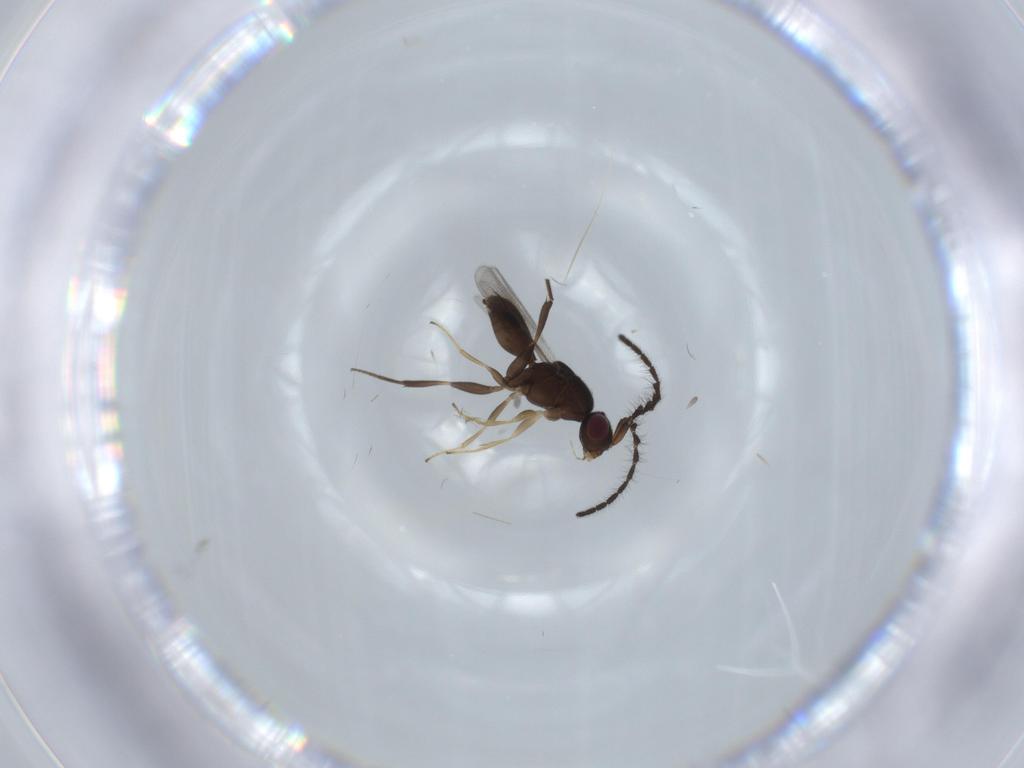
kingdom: Animalia
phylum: Arthropoda
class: Insecta
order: Hymenoptera
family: Megaspilidae
